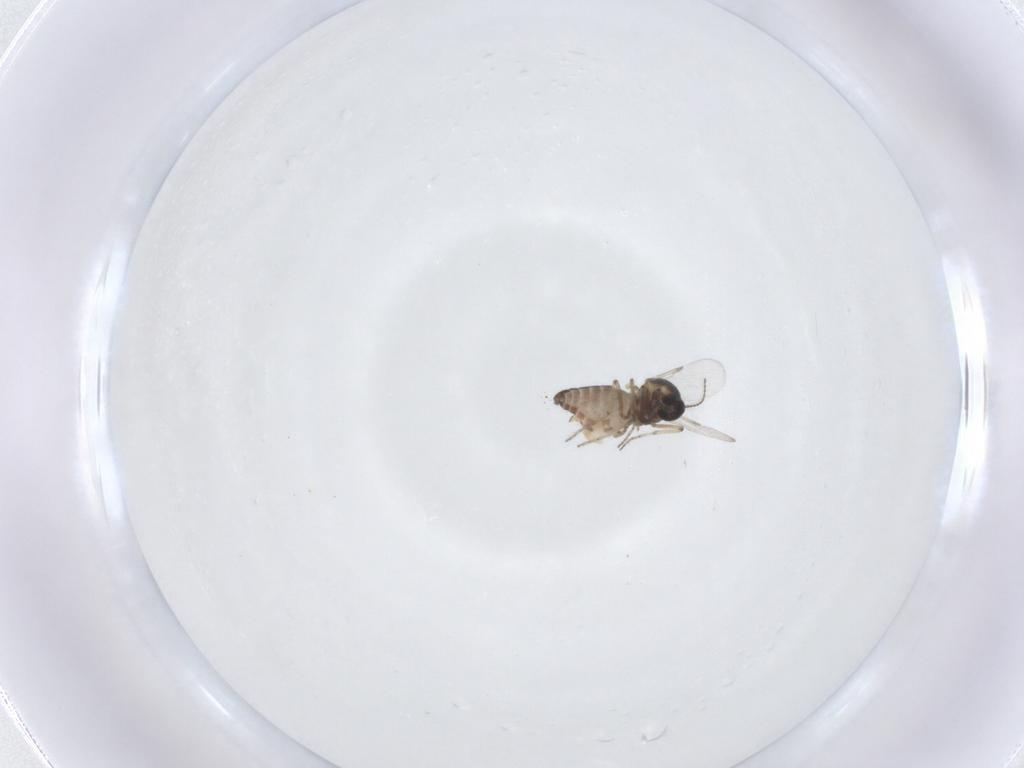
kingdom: Animalia
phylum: Arthropoda
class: Insecta
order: Diptera
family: Ceratopogonidae
